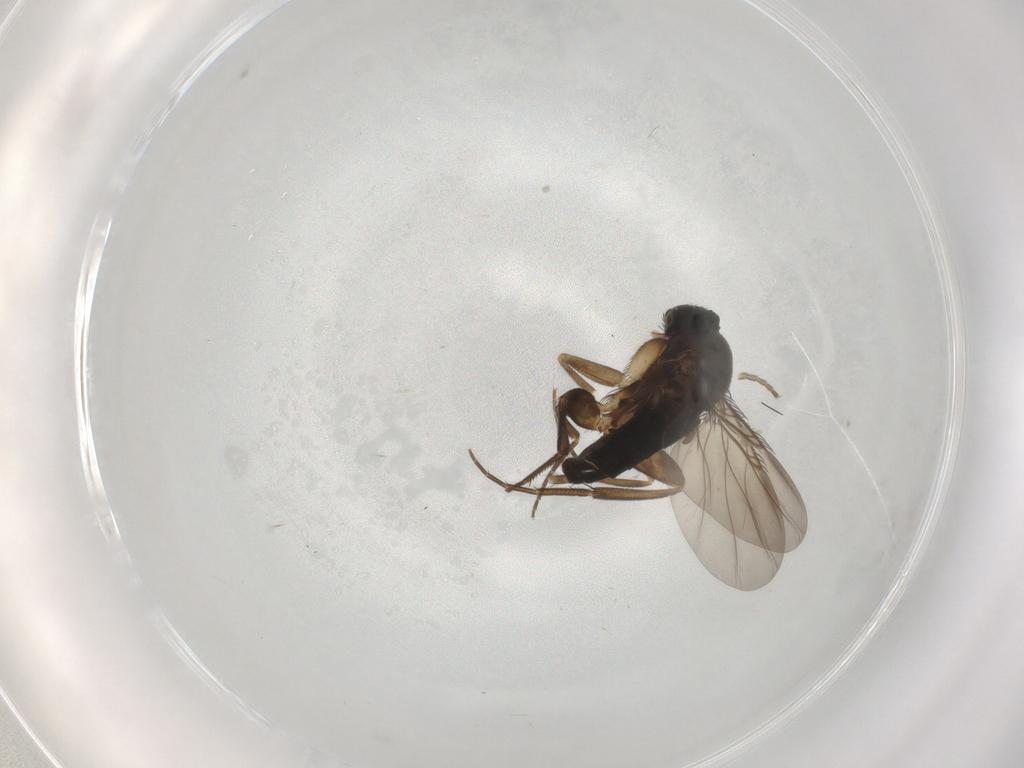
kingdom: Animalia
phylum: Arthropoda
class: Insecta
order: Diptera
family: Phoridae
